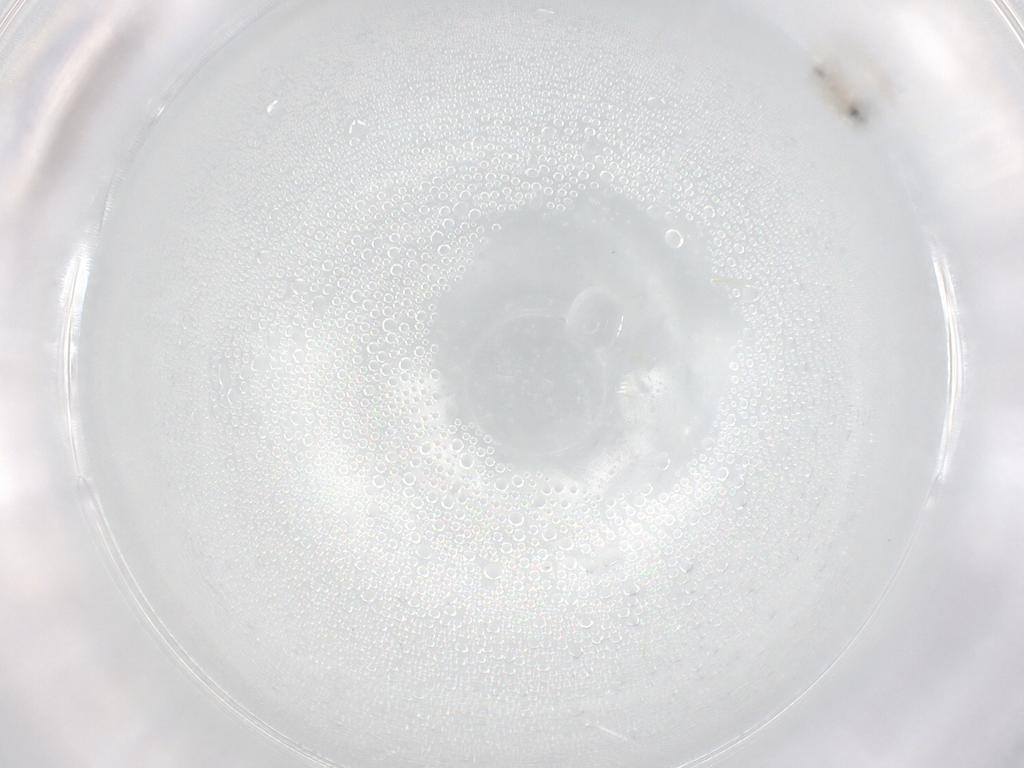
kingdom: Animalia
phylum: Arthropoda
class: Insecta
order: Diptera
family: Cecidomyiidae
